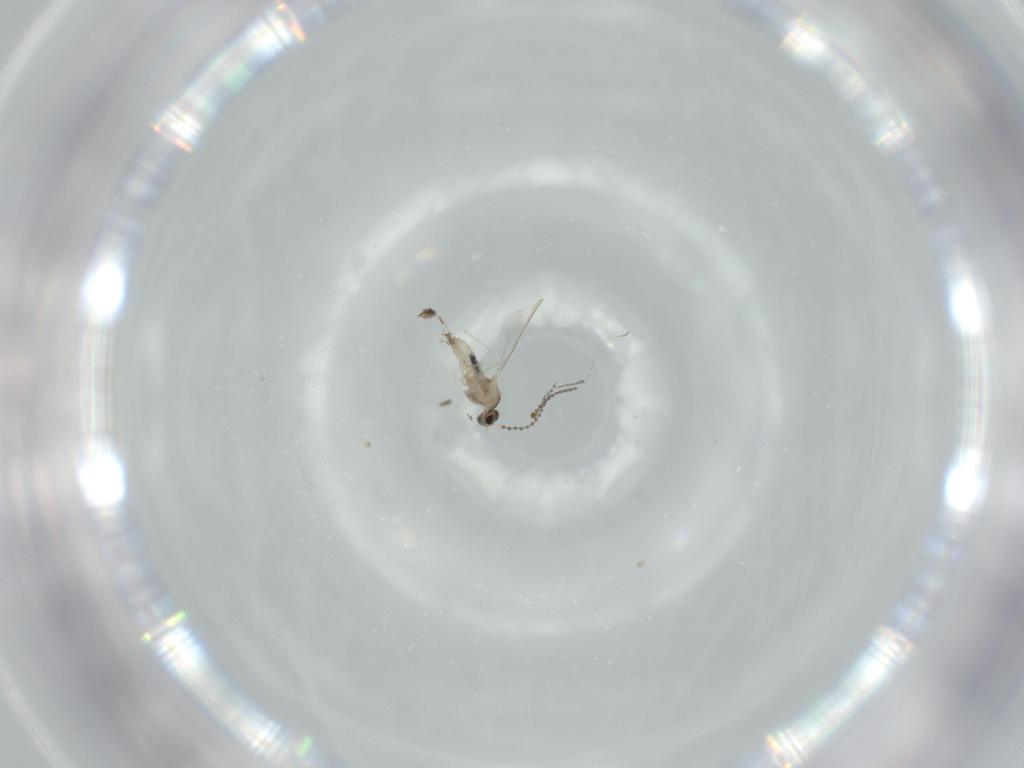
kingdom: Animalia
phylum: Arthropoda
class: Insecta
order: Diptera
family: Cecidomyiidae
